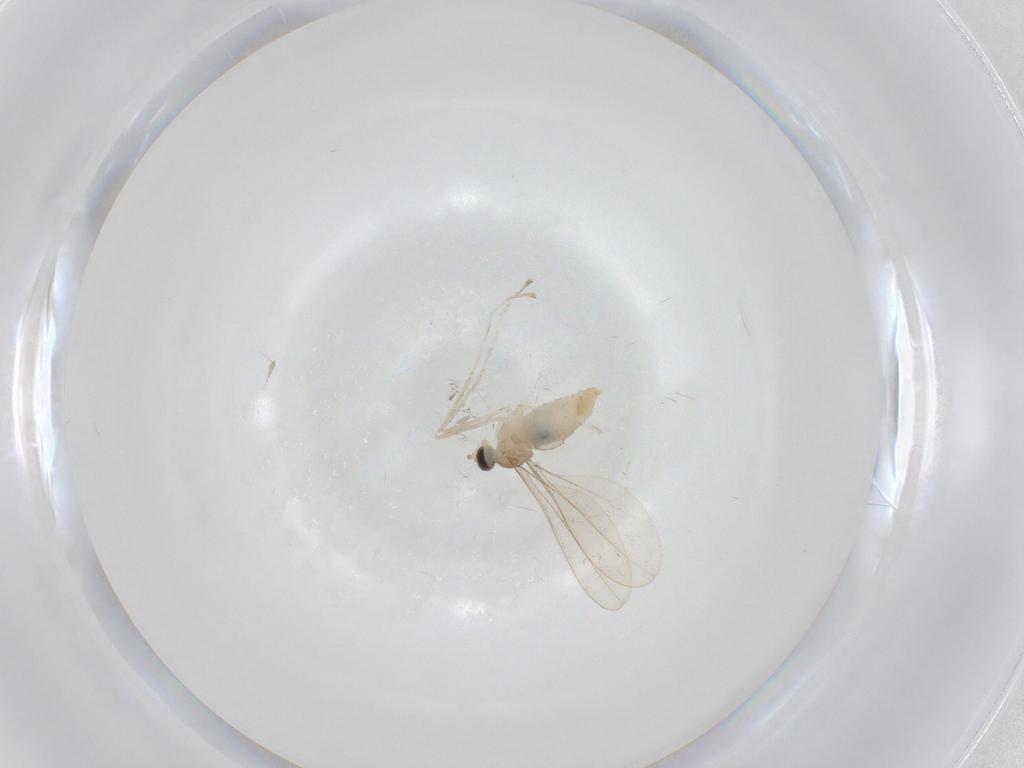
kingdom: Animalia
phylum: Arthropoda
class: Insecta
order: Diptera
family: Cecidomyiidae
